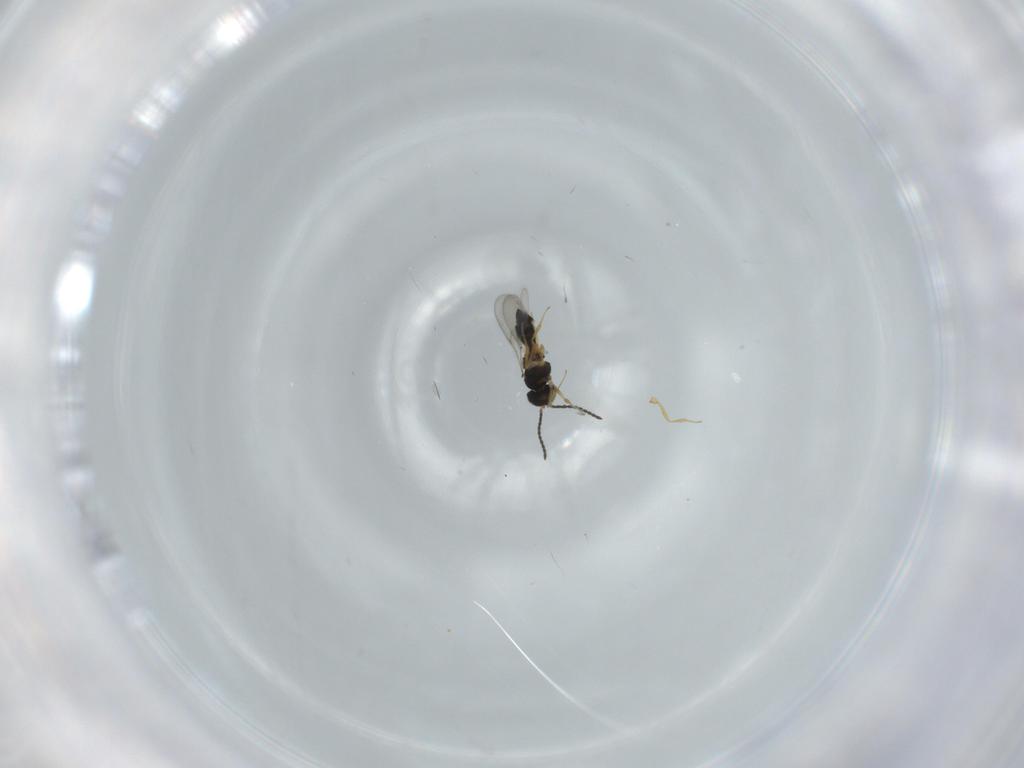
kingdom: Animalia
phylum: Arthropoda
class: Insecta
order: Hymenoptera
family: Scelionidae
